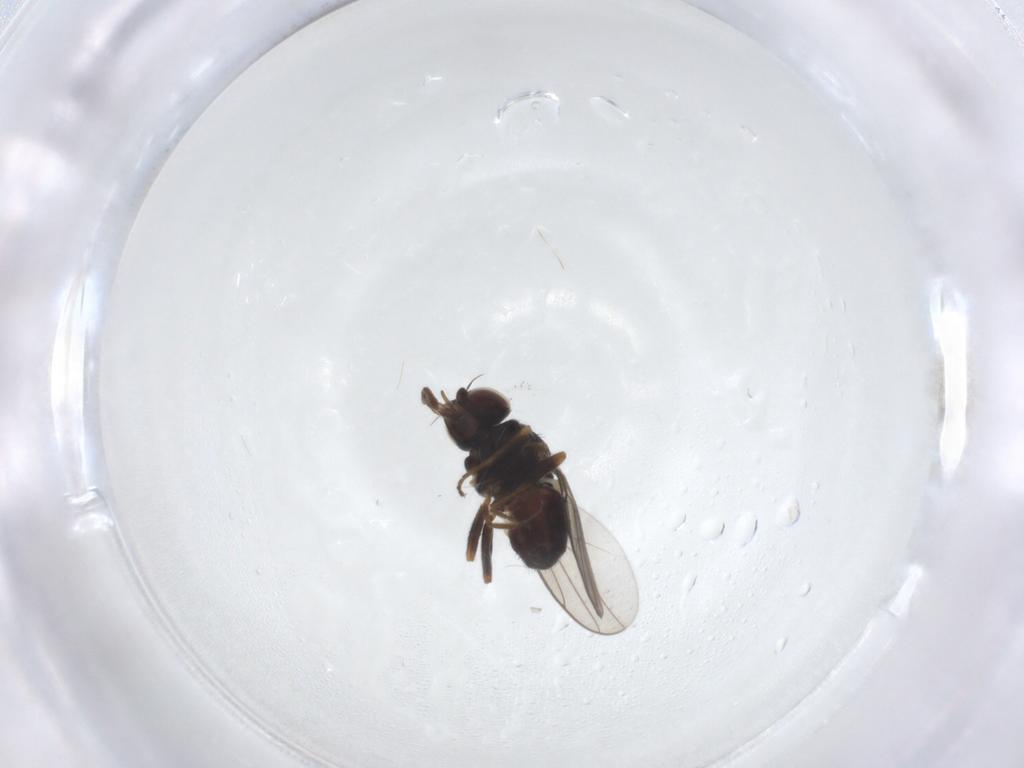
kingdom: Animalia
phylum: Arthropoda
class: Insecta
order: Diptera
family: Chloropidae
